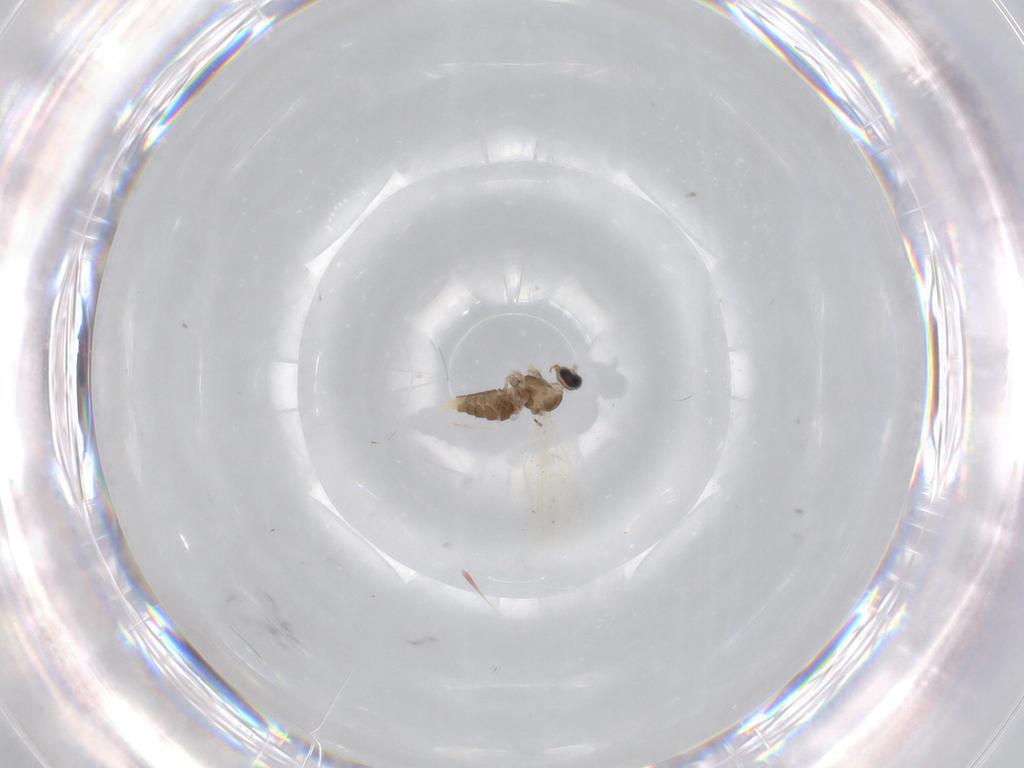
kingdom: Animalia
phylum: Arthropoda
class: Insecta
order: Diptera
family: Cecidomyiidae
